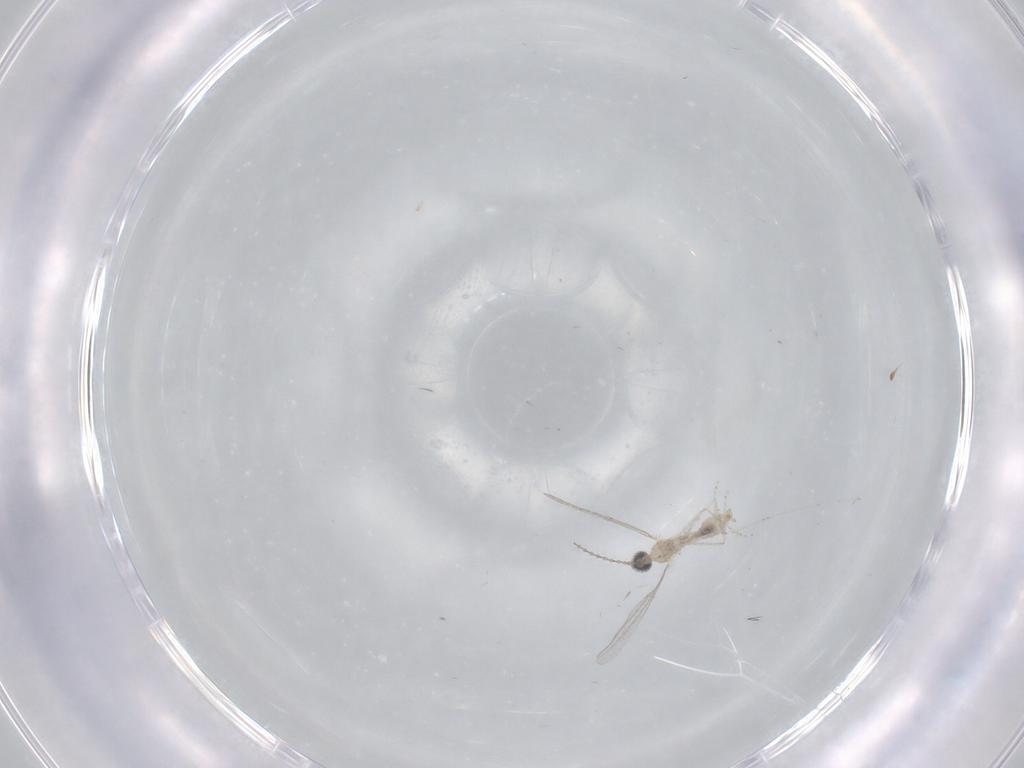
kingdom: Animalia
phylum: Arthropoda
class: Insecta
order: Diptera
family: Cecidomyiidae
